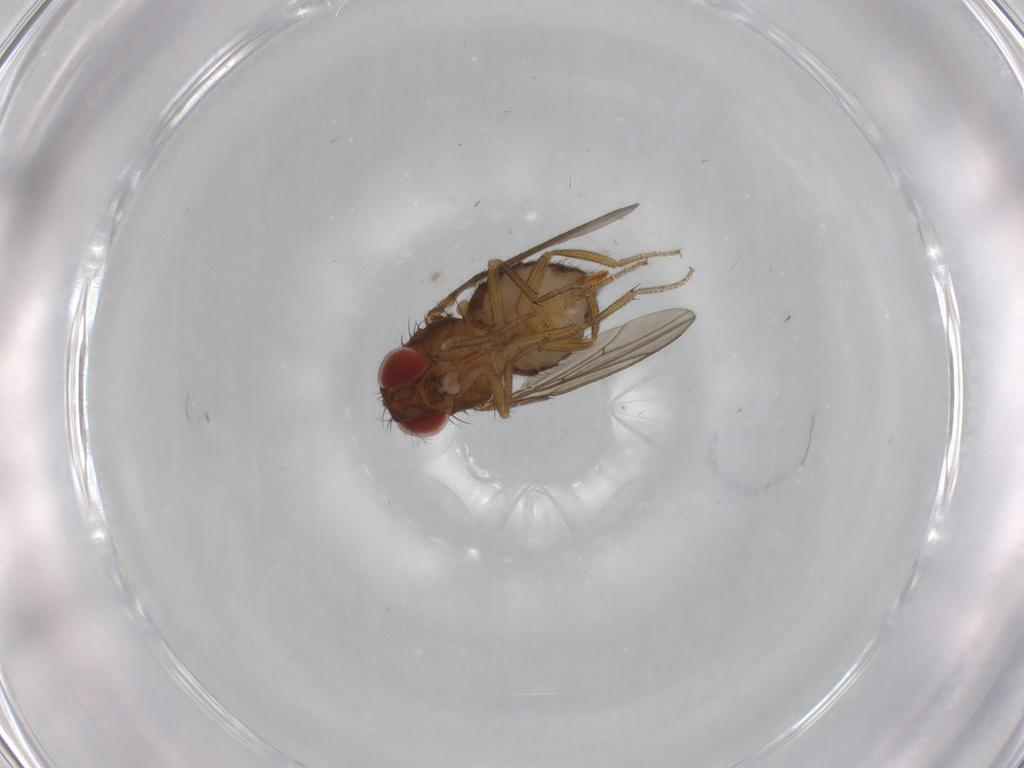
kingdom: Animalia
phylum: Arthropoda
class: Insecta
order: Diptera
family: Drosophilidae
